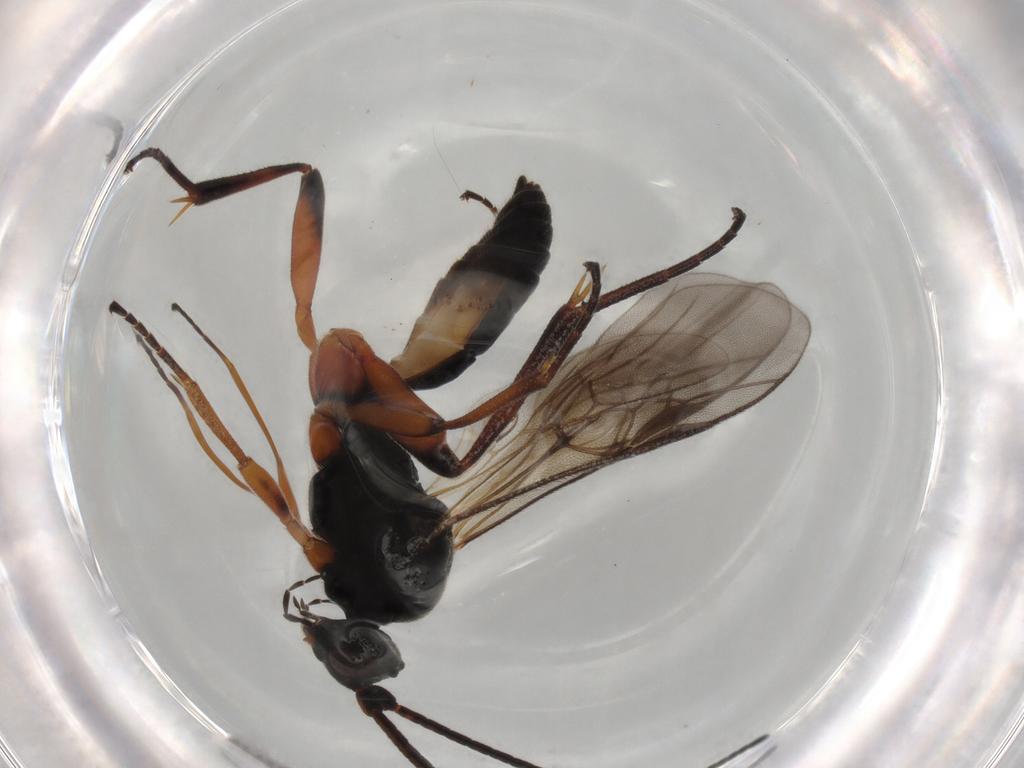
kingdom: Animalia
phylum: Arthropoda
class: Insecta
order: Hymenoptera
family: Braconidae
